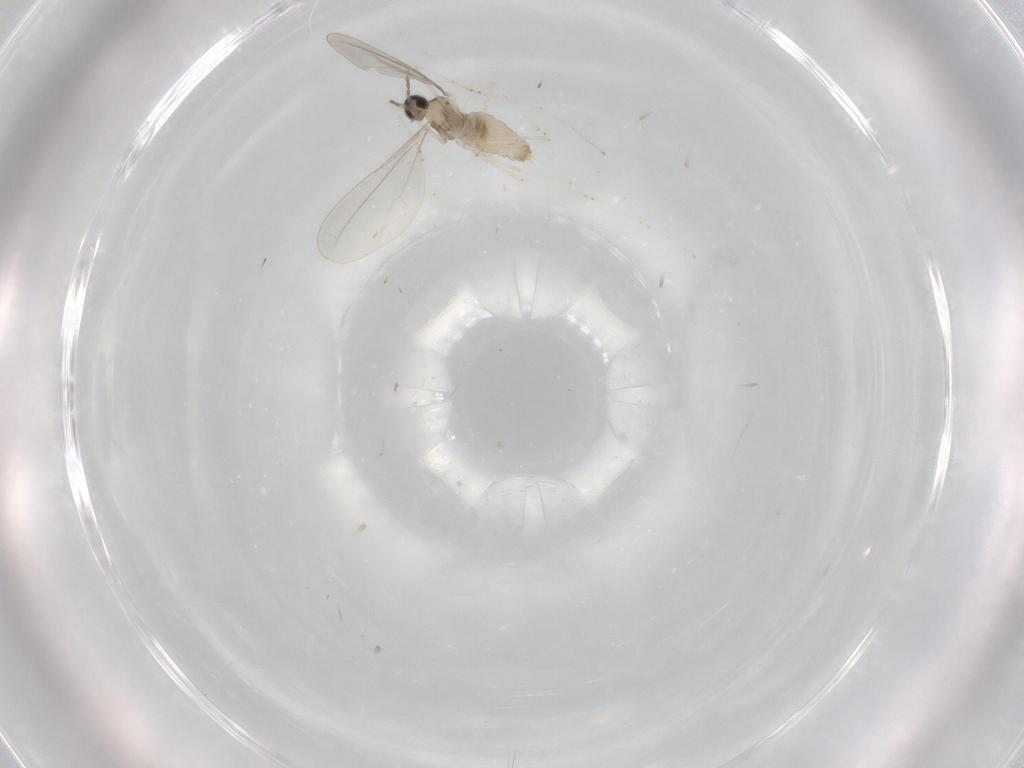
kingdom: Animalia
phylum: Arthropoda
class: Insecta
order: Diptera
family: Cecidomyiidae
